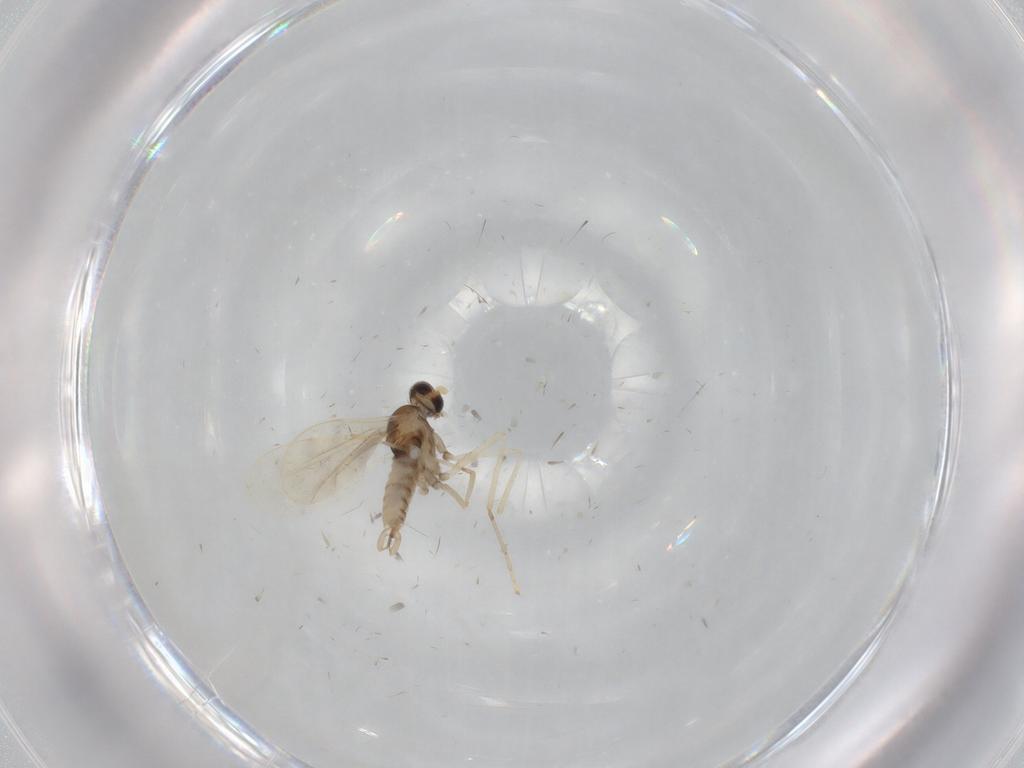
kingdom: Animalia
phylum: Arthropoda
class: Insecta
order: Diptera
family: Cecidomyiidae
